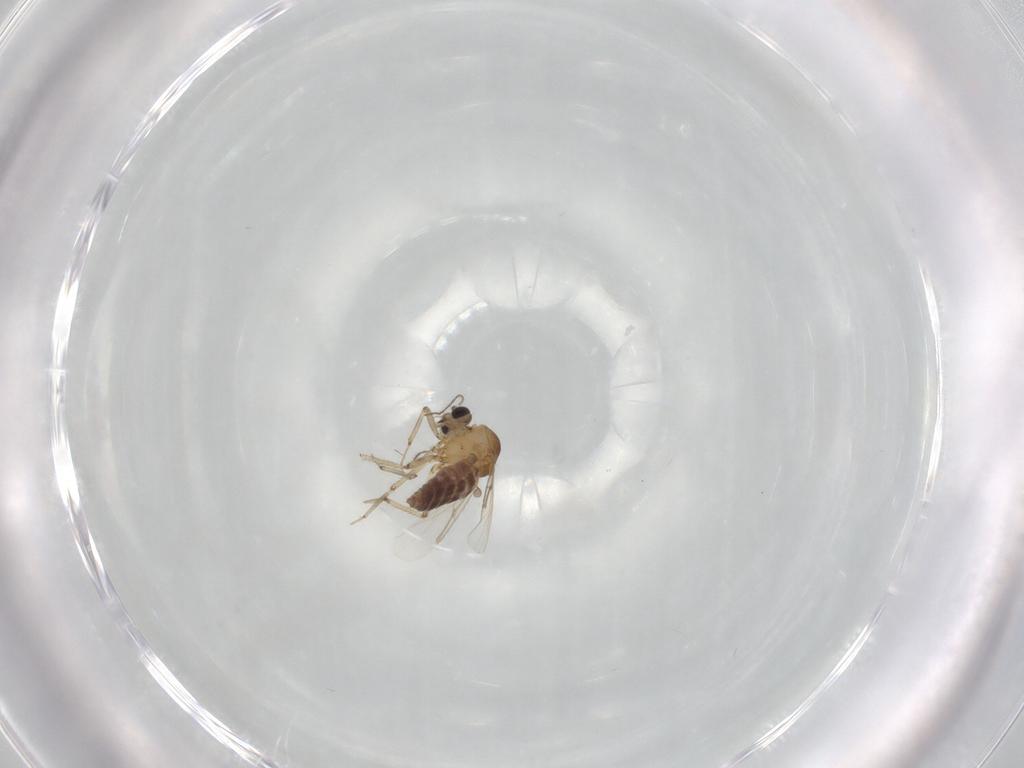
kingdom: Animalia
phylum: Arthropoda
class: Insecta
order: Diptera
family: Ceratopogonidae
